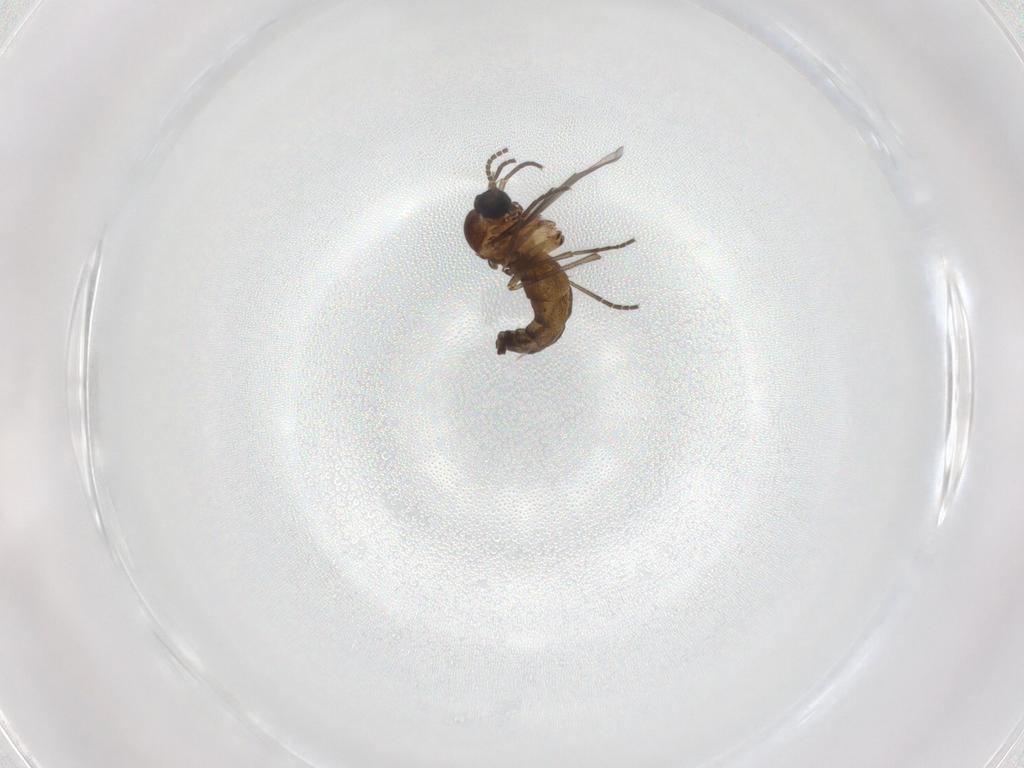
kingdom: Animalia
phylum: Arthropoda
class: Insecta
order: Diptera
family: Sciaridae
